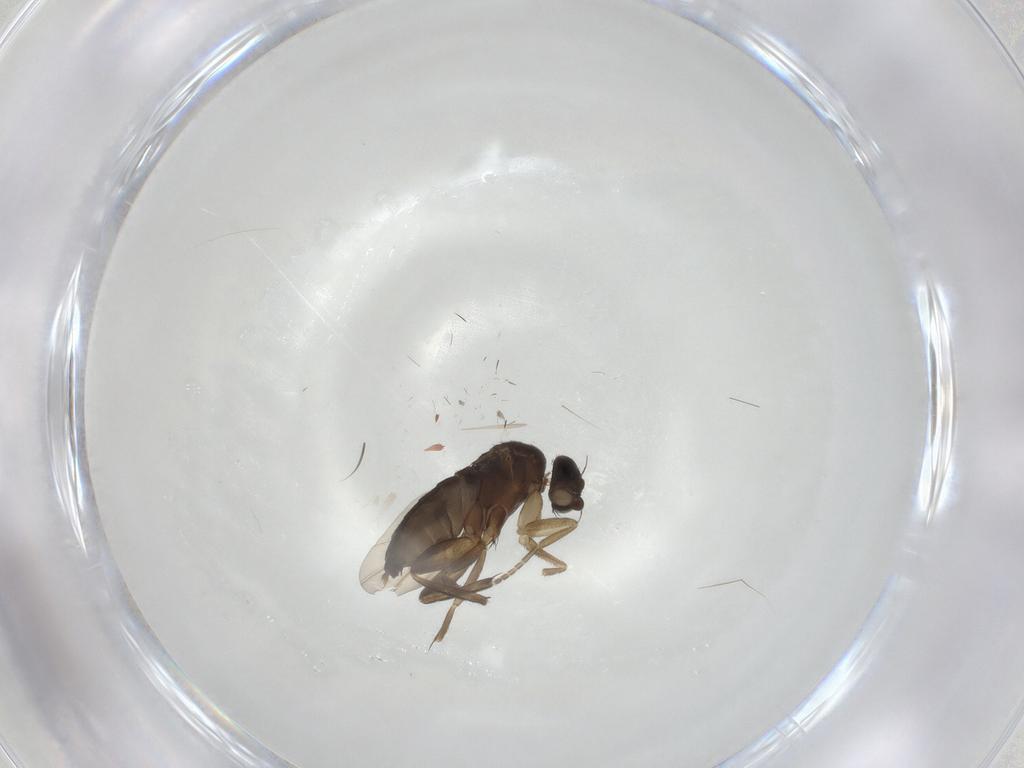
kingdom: Animalia
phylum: Arthropoda
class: Insecta
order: Diptera
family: Phoridae
